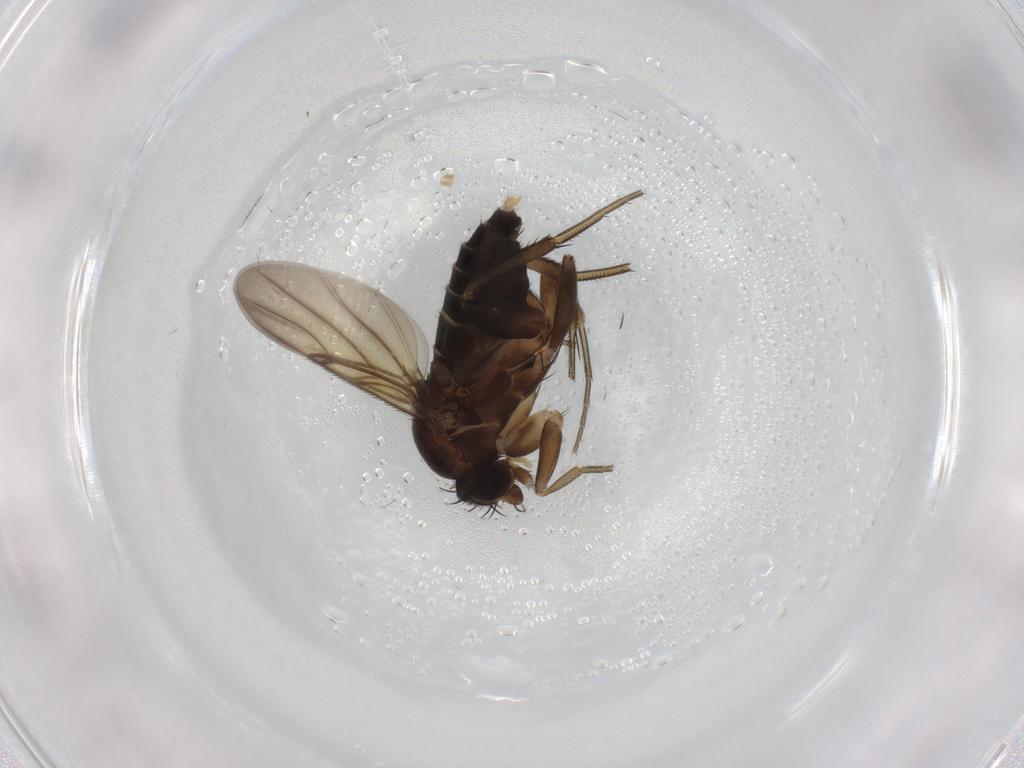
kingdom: Animalia
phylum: Arthropoda
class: Insecta
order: Diptera
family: Phoridae
